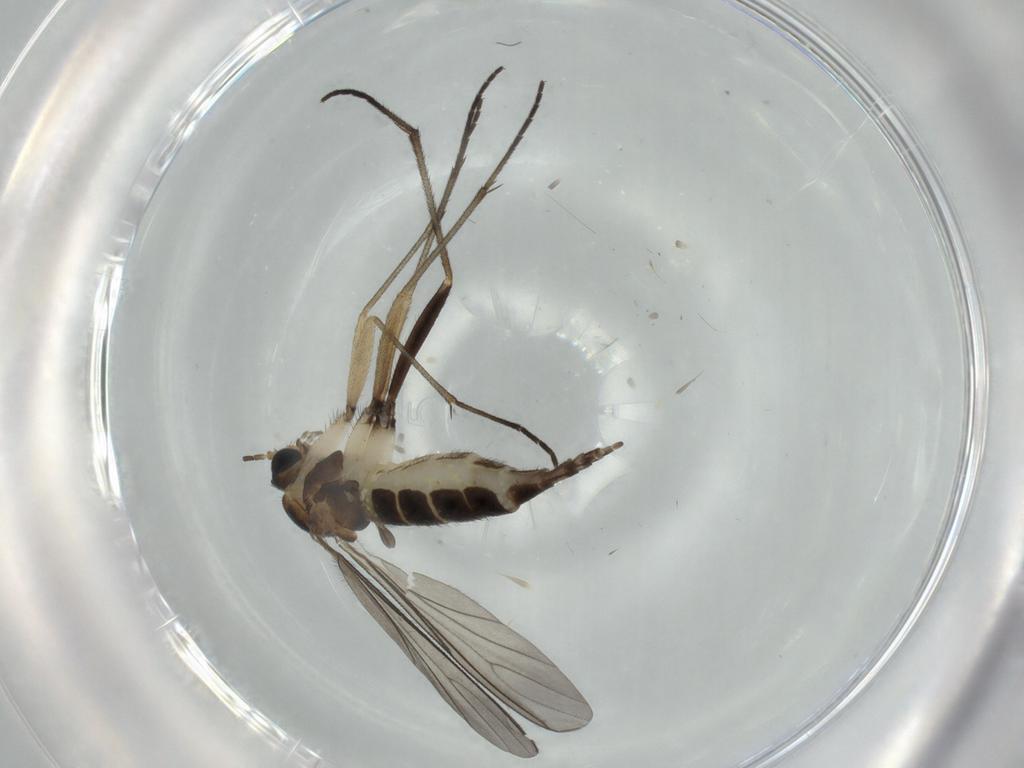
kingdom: Animalia
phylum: Arthropoda
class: Insecta
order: Diptera
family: Sciaridae
